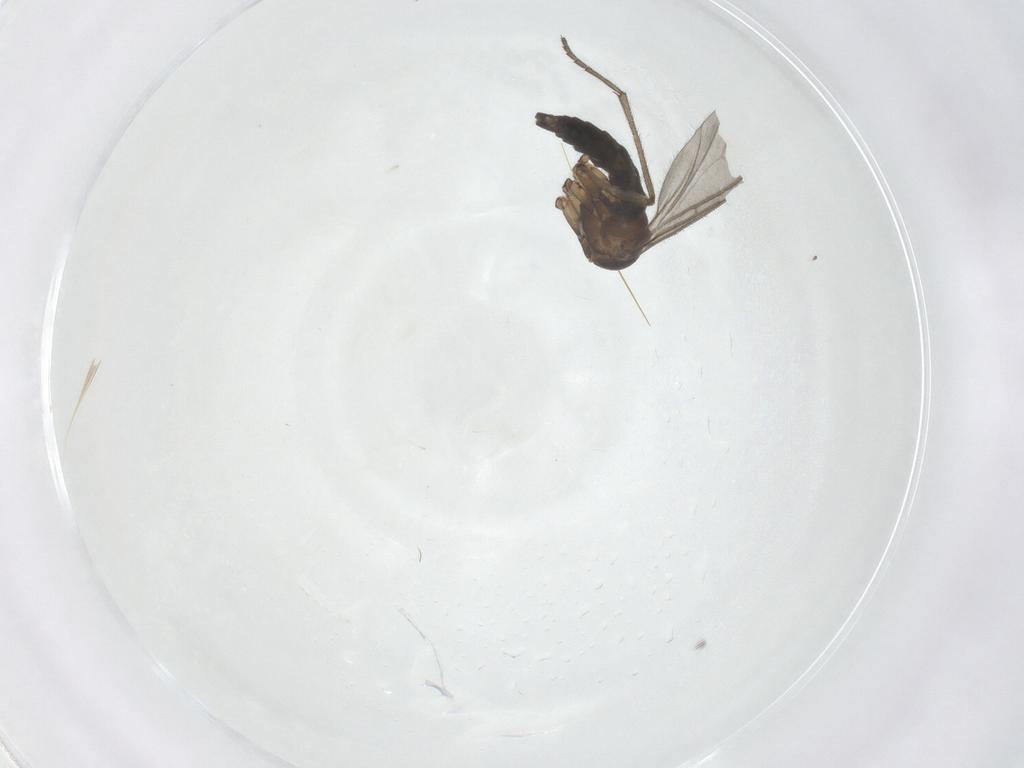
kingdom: Animalia
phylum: Arthropoda
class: Insecta
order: Diptera
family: Sciaridae
